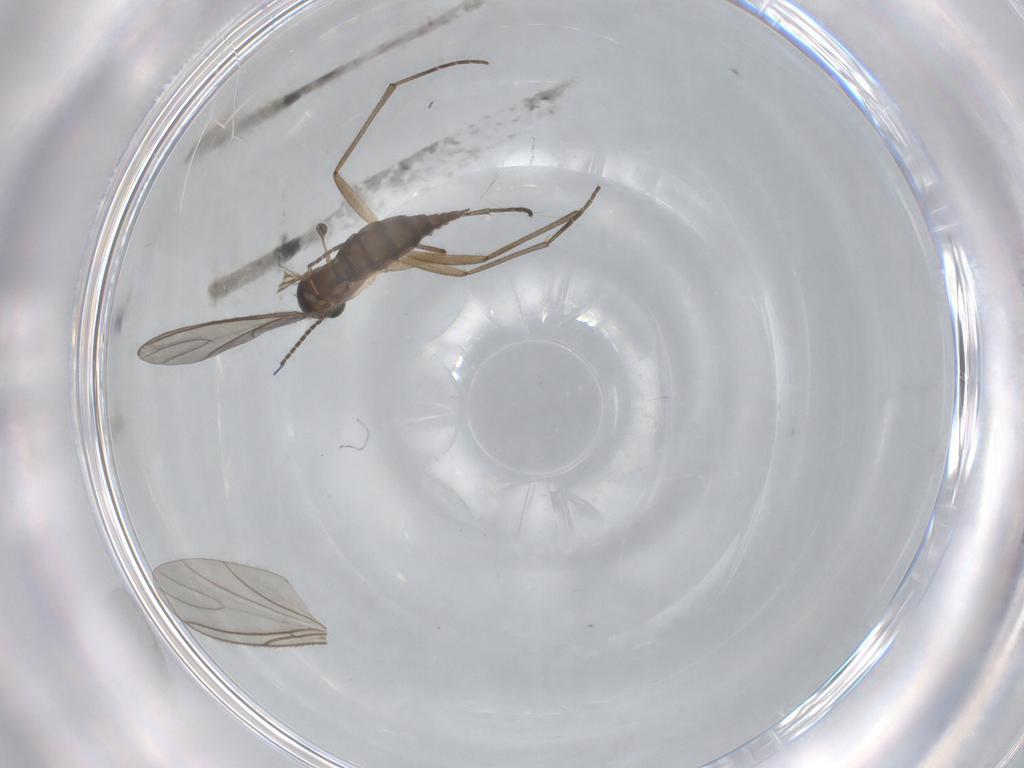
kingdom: Animalia
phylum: Arthropoda
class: Insecta
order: Diptera
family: Sciaridae
